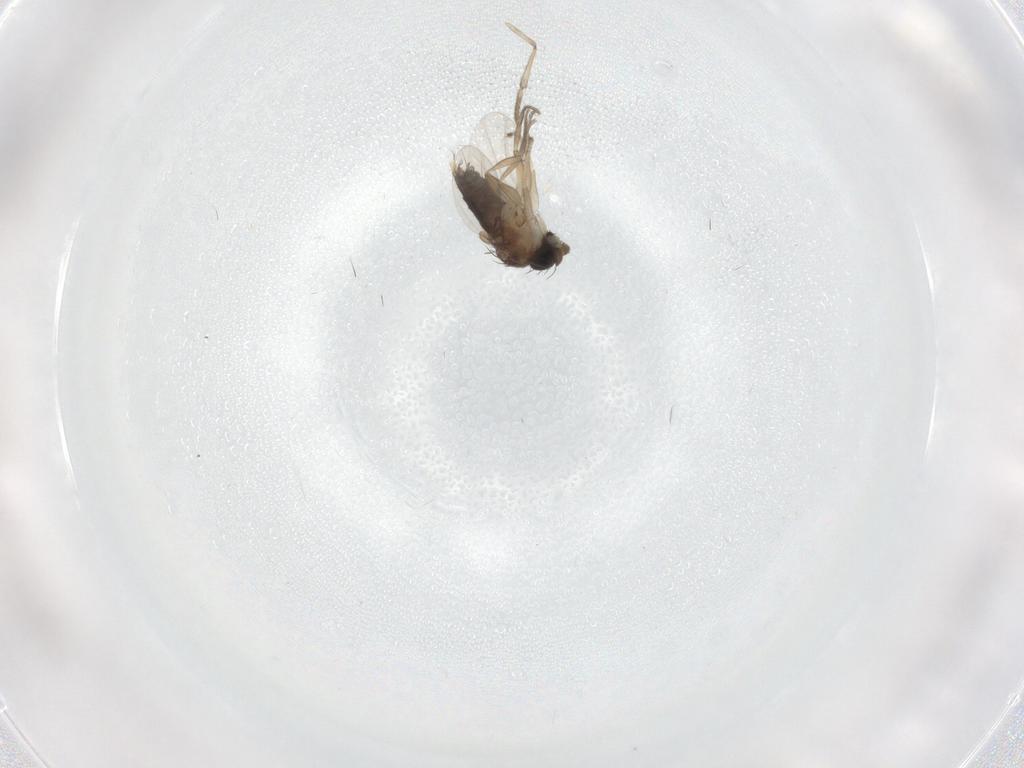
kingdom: Animalia
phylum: Arthropoda
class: Insecta
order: Diptera
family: Phoridae
